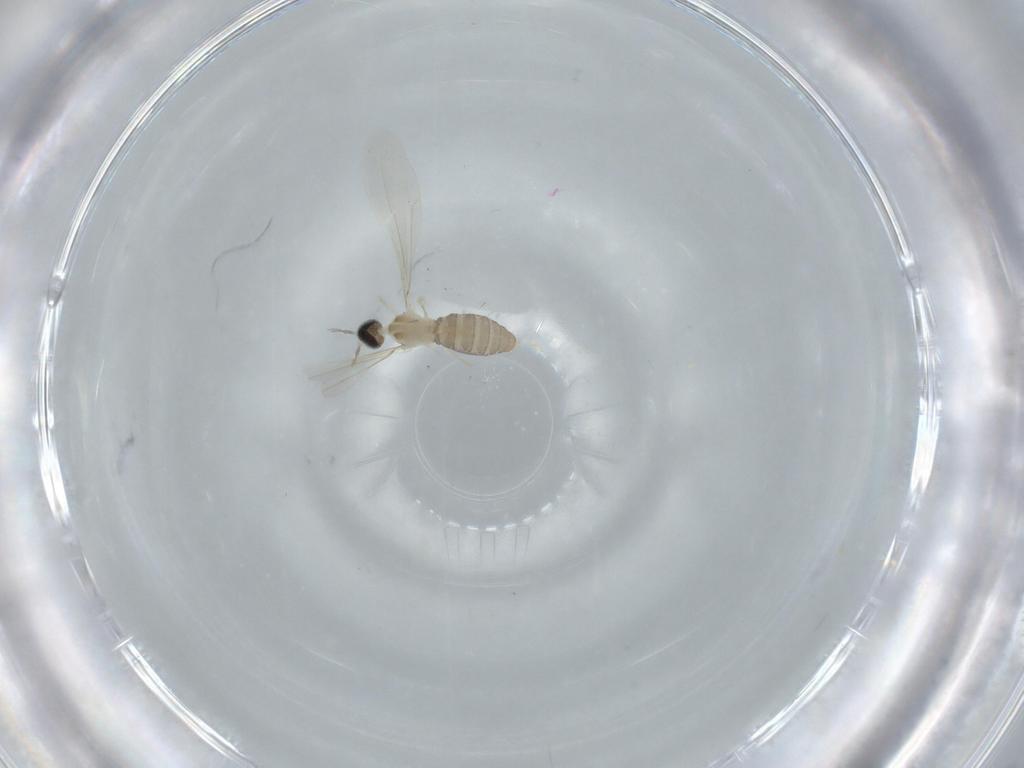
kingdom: Animalia
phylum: Arthropoda
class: Insecta
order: Diptera
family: Cecidomyiidae
